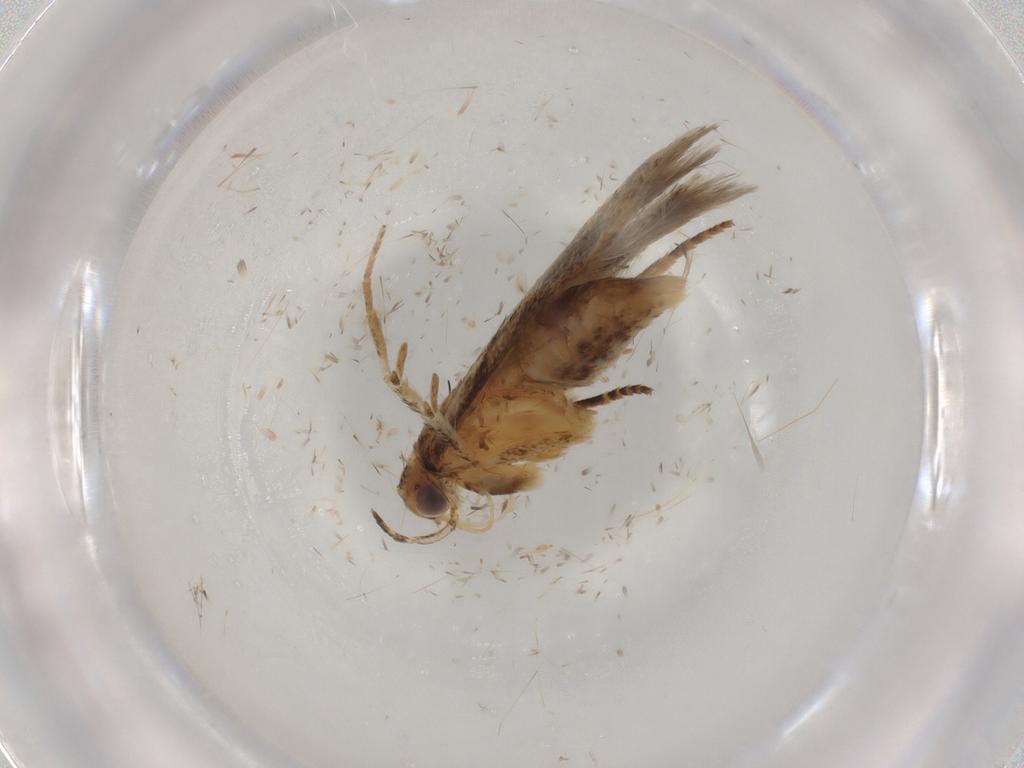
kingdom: Animalia
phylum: Arthropoda
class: Insecta
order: Lepidoptera
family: Gelechiidae
